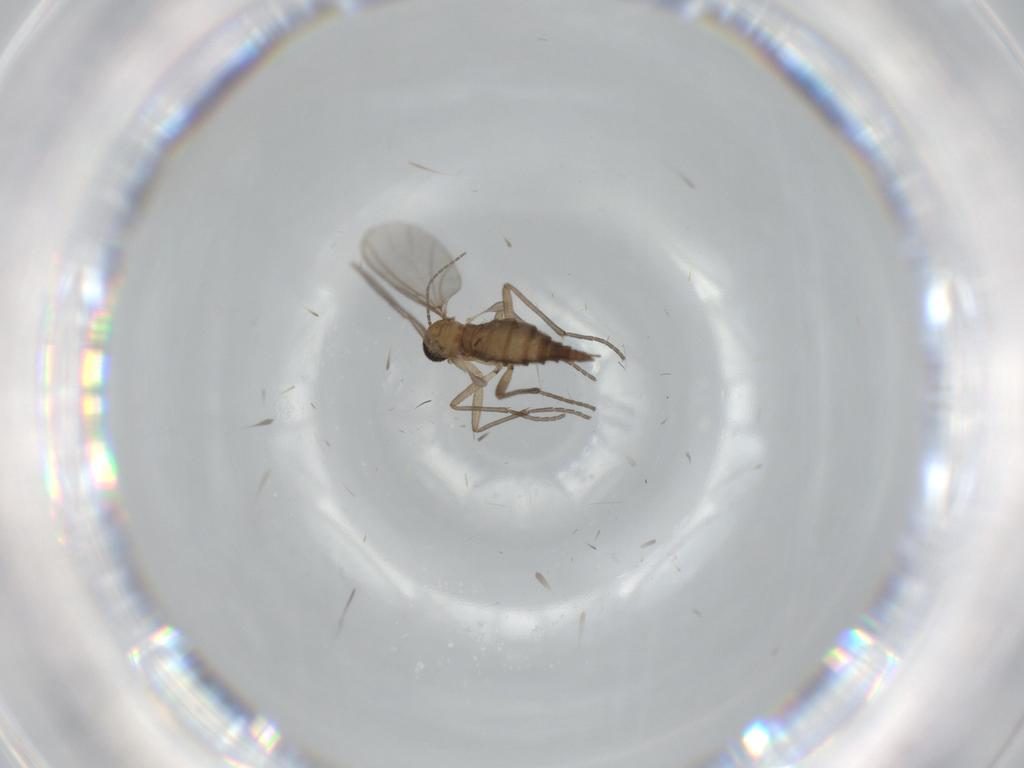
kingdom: Animalia
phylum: Arthropoda
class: Insecta
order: Diptera
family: Sciaridae
